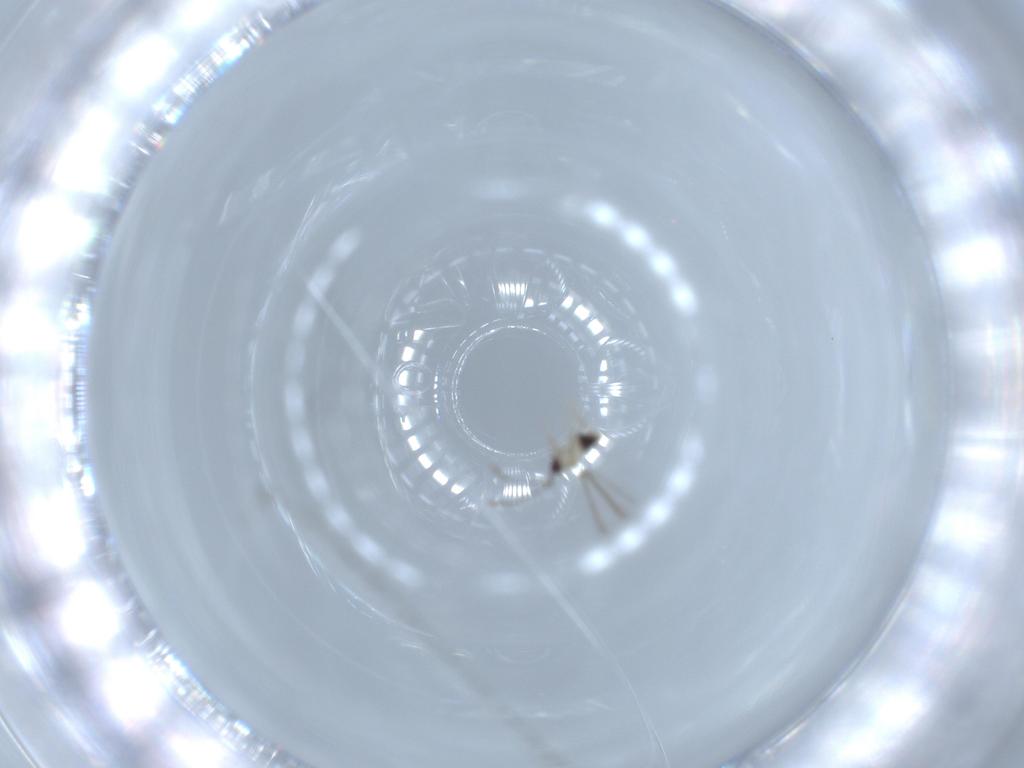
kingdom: Animalia
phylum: Arthropoda
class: Insecta
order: Hymenoptera
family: Mymaridae
